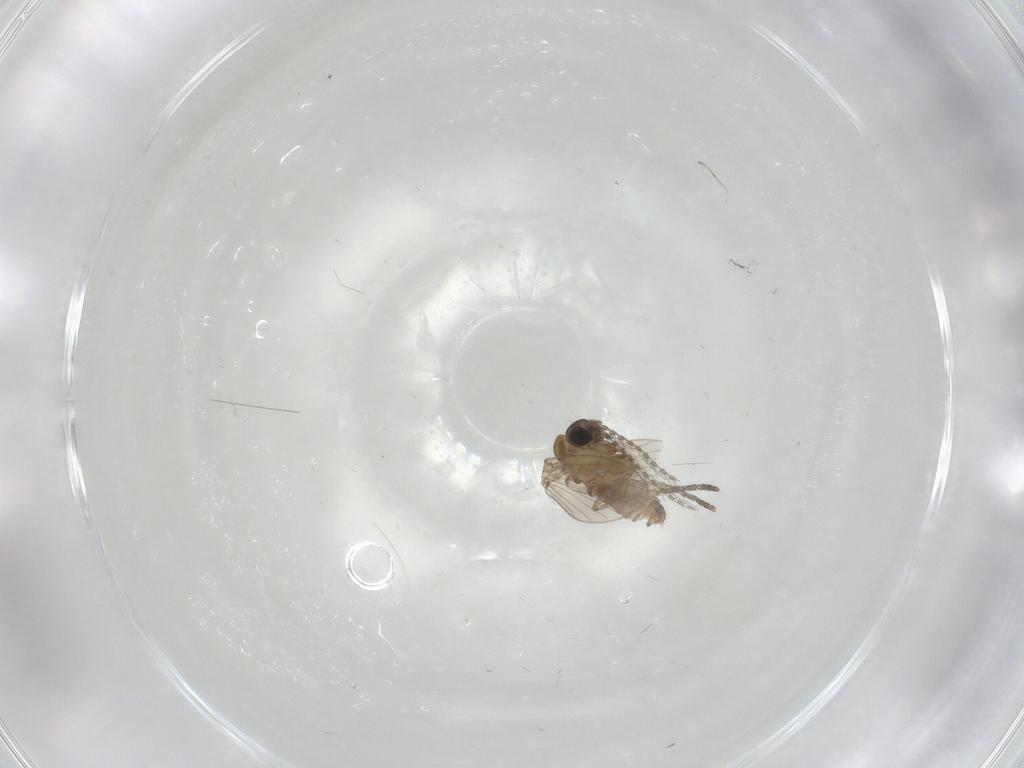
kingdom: Animalia
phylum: Arthropoda
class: Insecta
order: Diptera
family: Psychodidae
